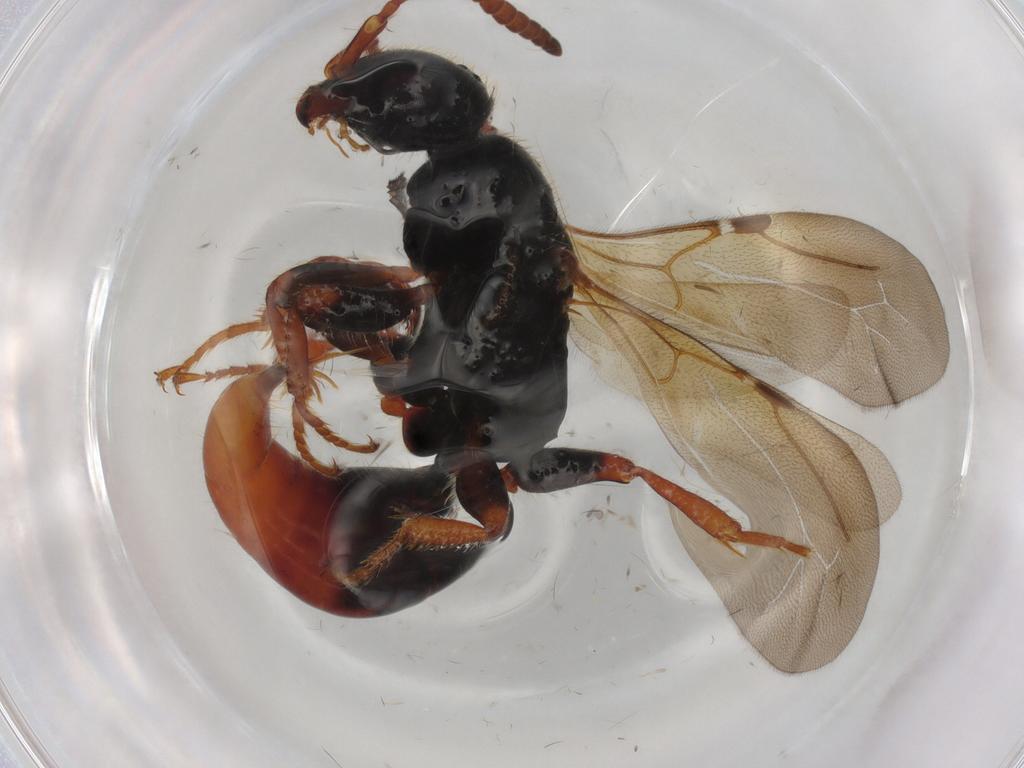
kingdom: Animalia
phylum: Arthropoda
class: Insecta
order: Hymenoptera
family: Bethylidae
